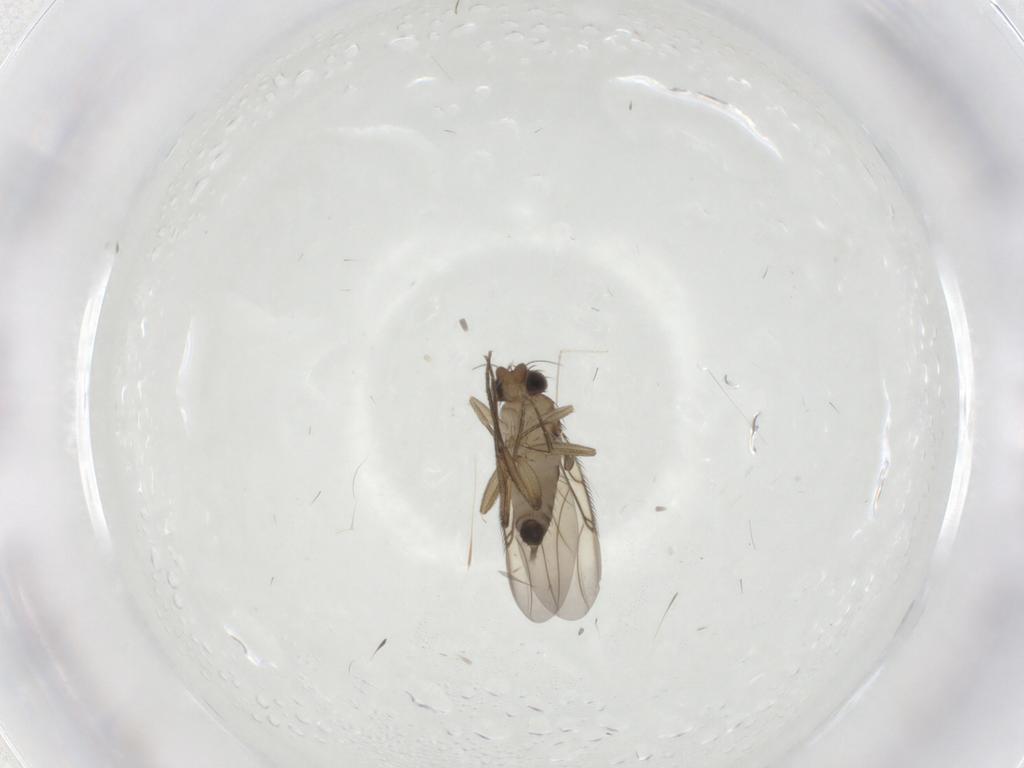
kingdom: Animalia
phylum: Arthropoda
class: Insecta
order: Diptera
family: Phoridae
